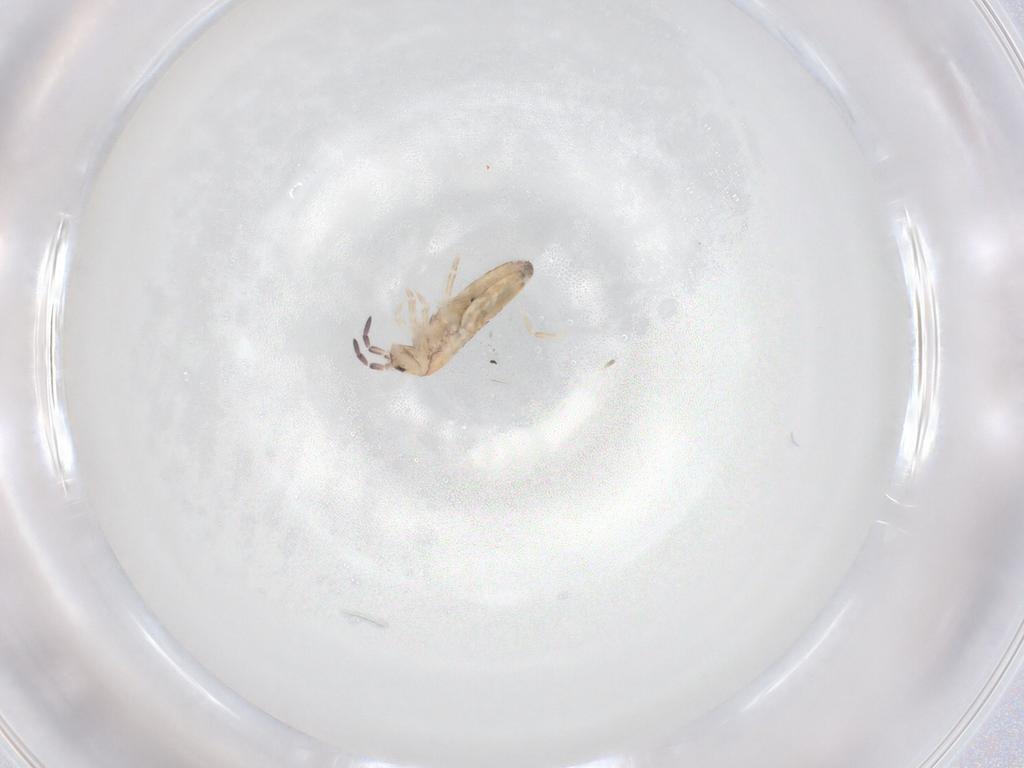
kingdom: Animalia
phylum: Arthropoda
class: Collembola
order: Entomobryomorpha
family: Entomobryidae
